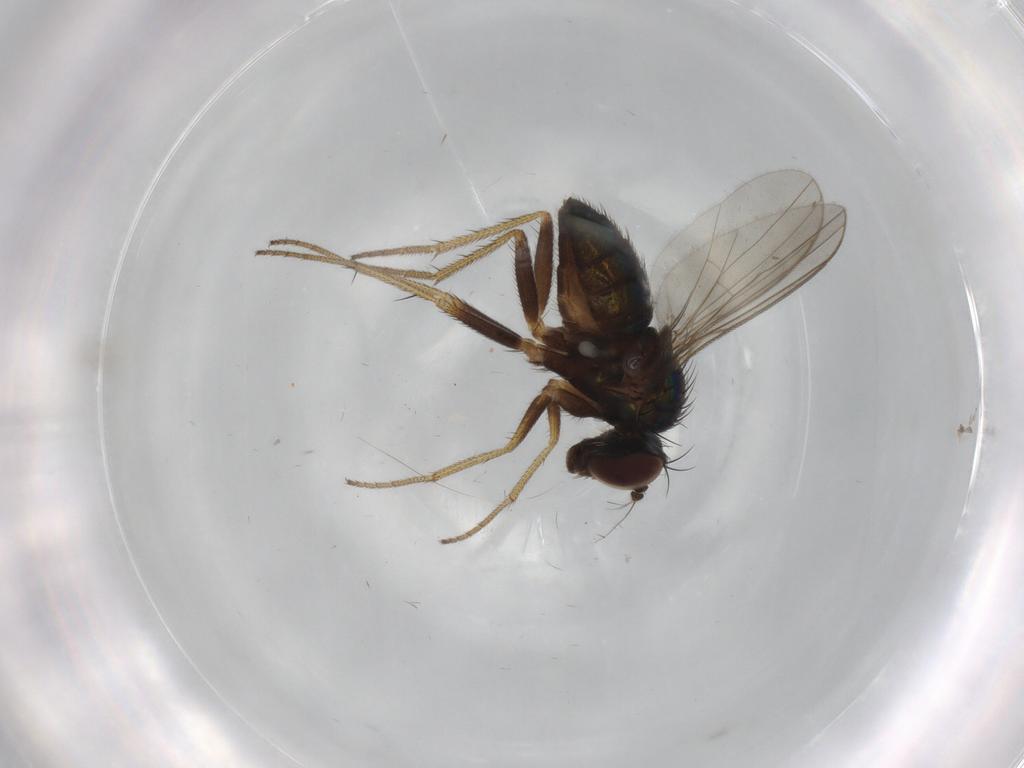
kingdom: Animalia
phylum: Arthropoda
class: Insecta
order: Diptera
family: Dolichopodidae
